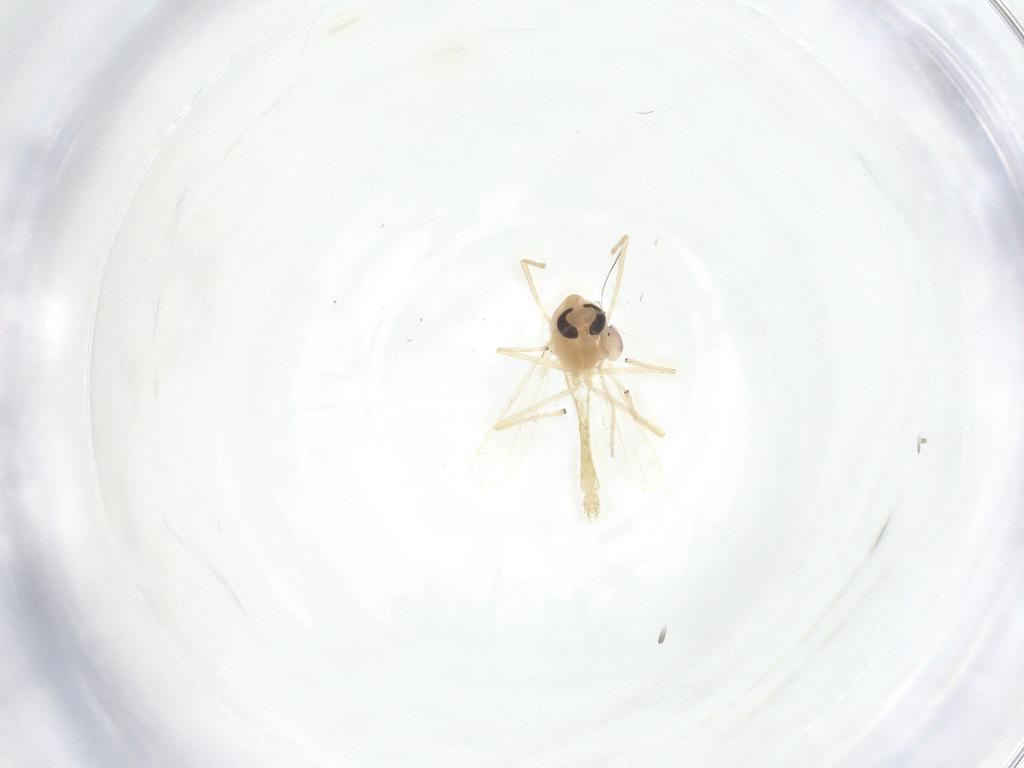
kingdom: Animalia
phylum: Arthropoda
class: Insecta
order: Diptera
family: Chironomidae
